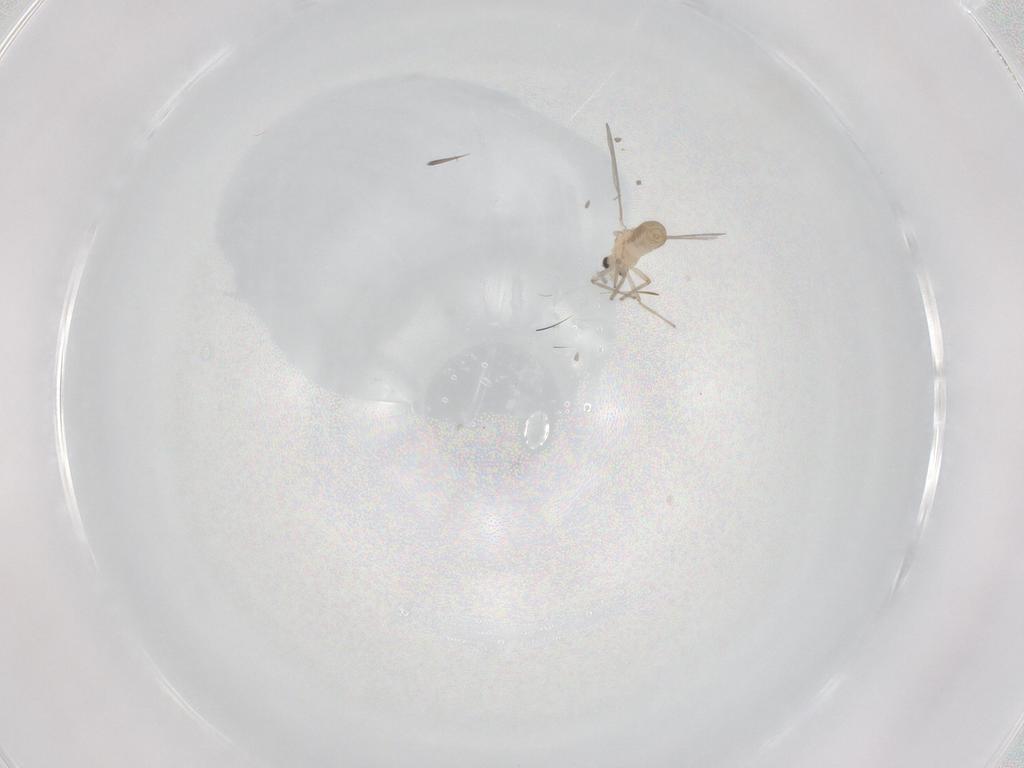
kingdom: Animalia
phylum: Arthropoda
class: Insecta
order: Diptera
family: Chironomidae
